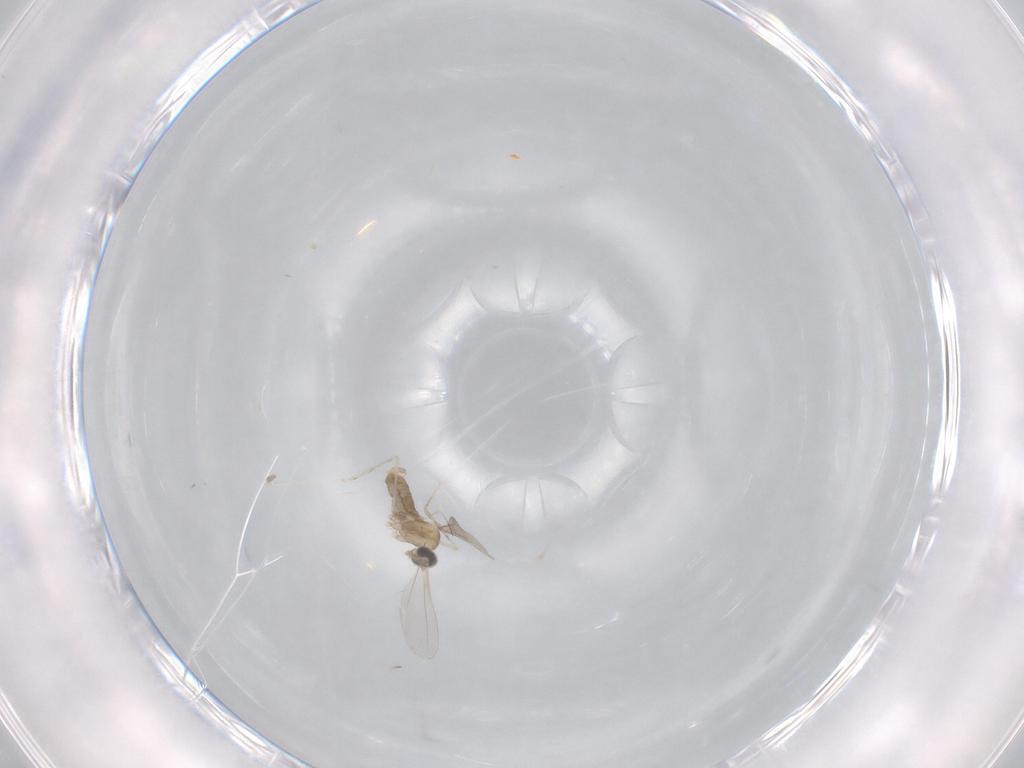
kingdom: Animalia
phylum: Arthropoda
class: Insecta
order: Diptera
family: Cecidomyiidae
